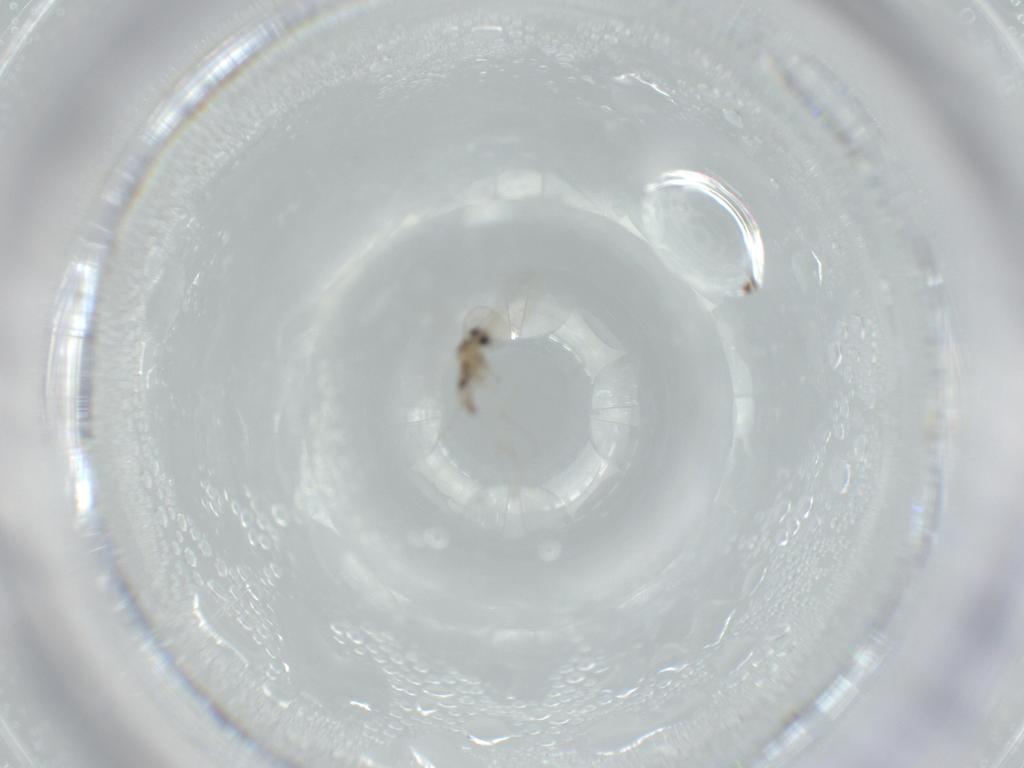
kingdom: Animalia
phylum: Arthropoda
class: Insecta
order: Diptera
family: Cecidomyiidae
